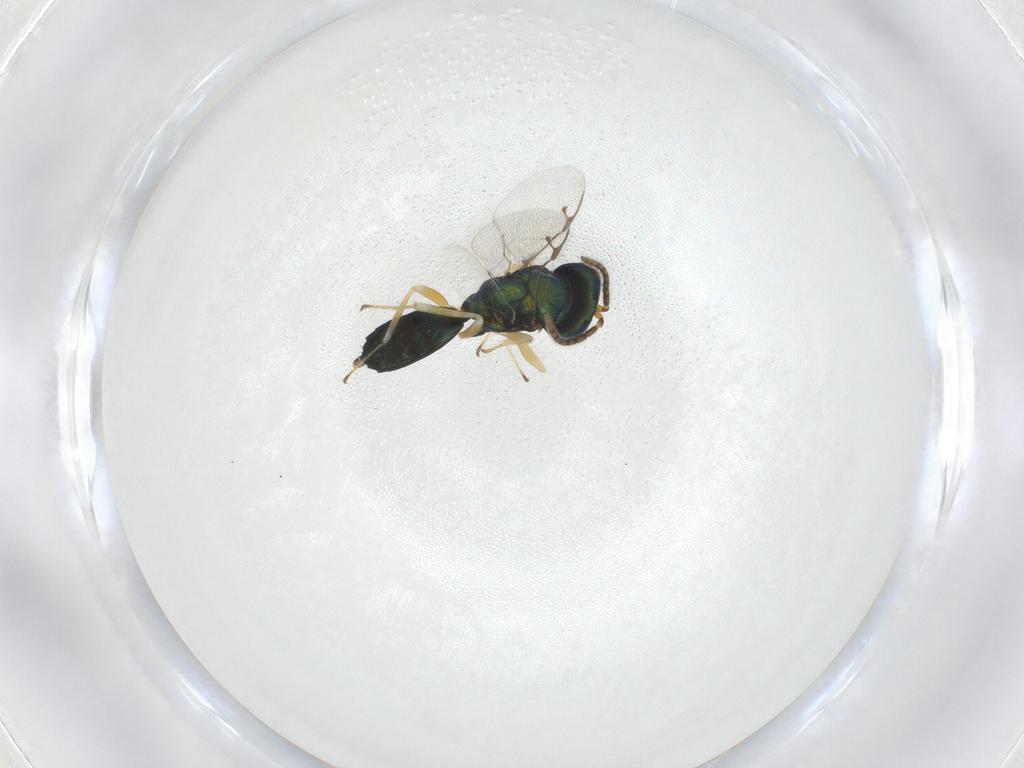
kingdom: Animalia
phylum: Arthropoda
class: Insecta
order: Hymenoptera
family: Pteromalidae
